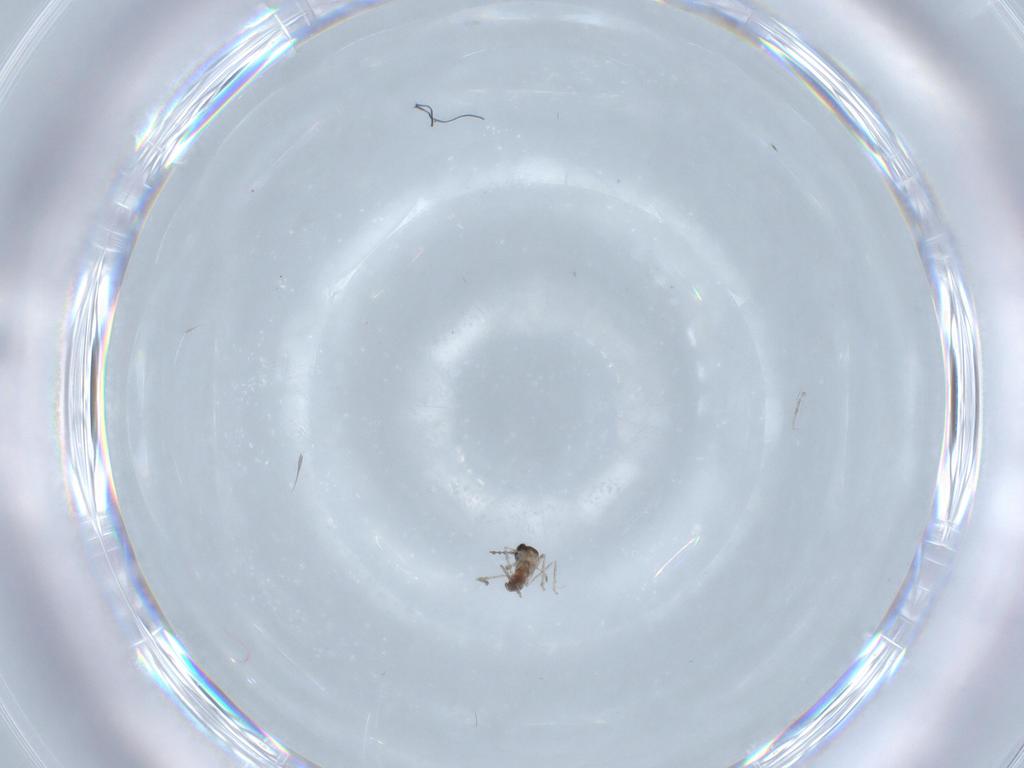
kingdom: Animalia
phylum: Arthropoda
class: Insecta
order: Diptera
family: Cecidomyiidae
